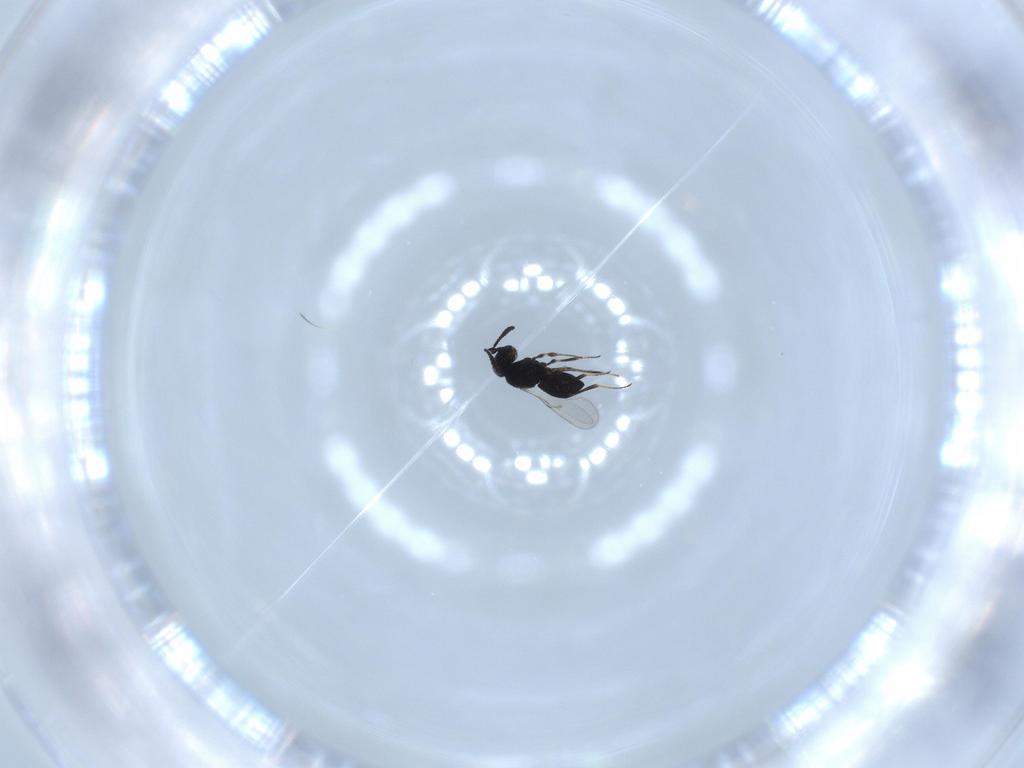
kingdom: Animalia
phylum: Arthropoda
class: Insecta
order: Hymenoptera
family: Scelionidae
